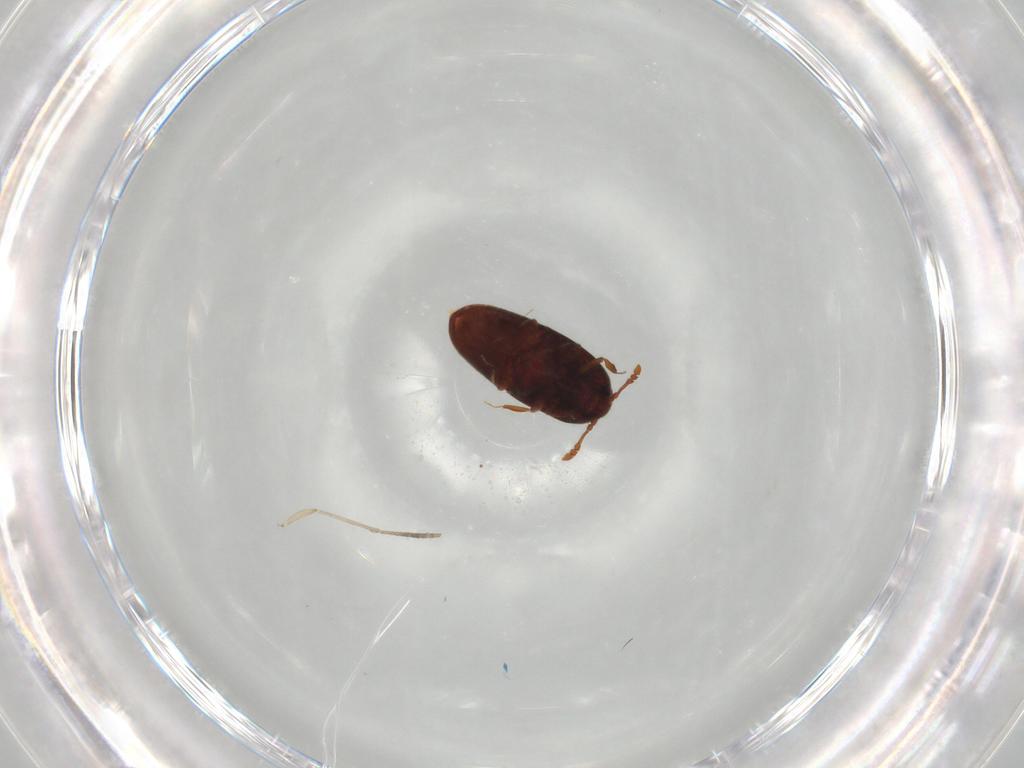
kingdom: Animalia
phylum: Arthropoda
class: Insecta
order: Coleoptera
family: Throscidae
